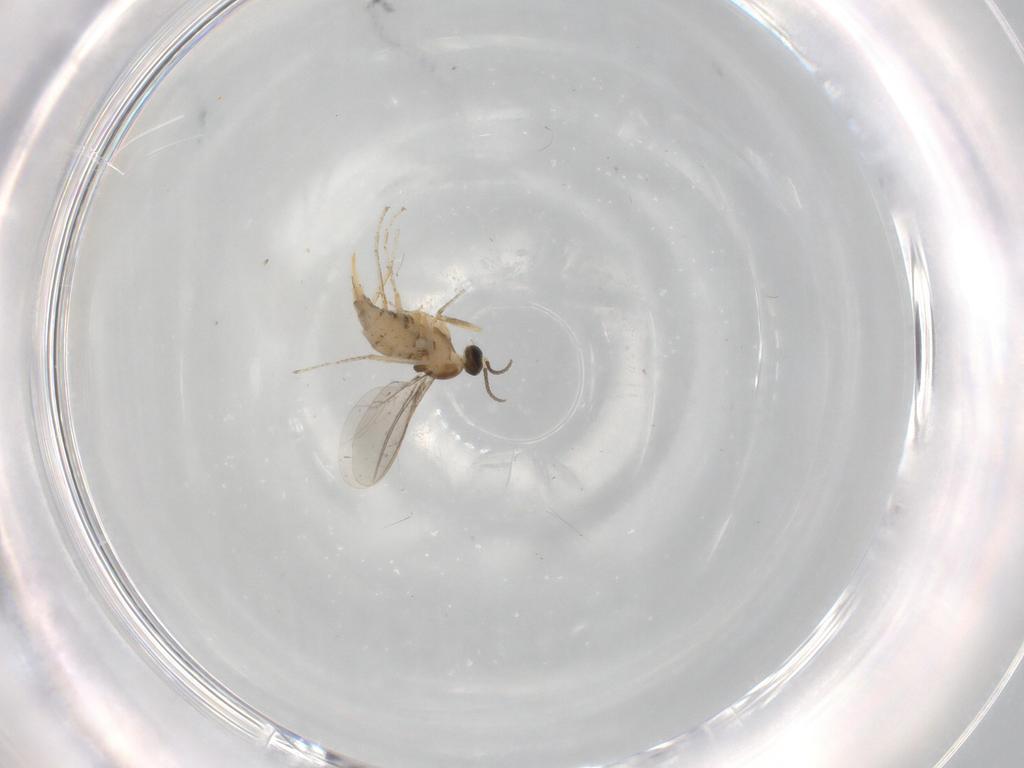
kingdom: Animalia
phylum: Arthropoda
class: Insecta
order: Diptera
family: Cecidomyiidae
